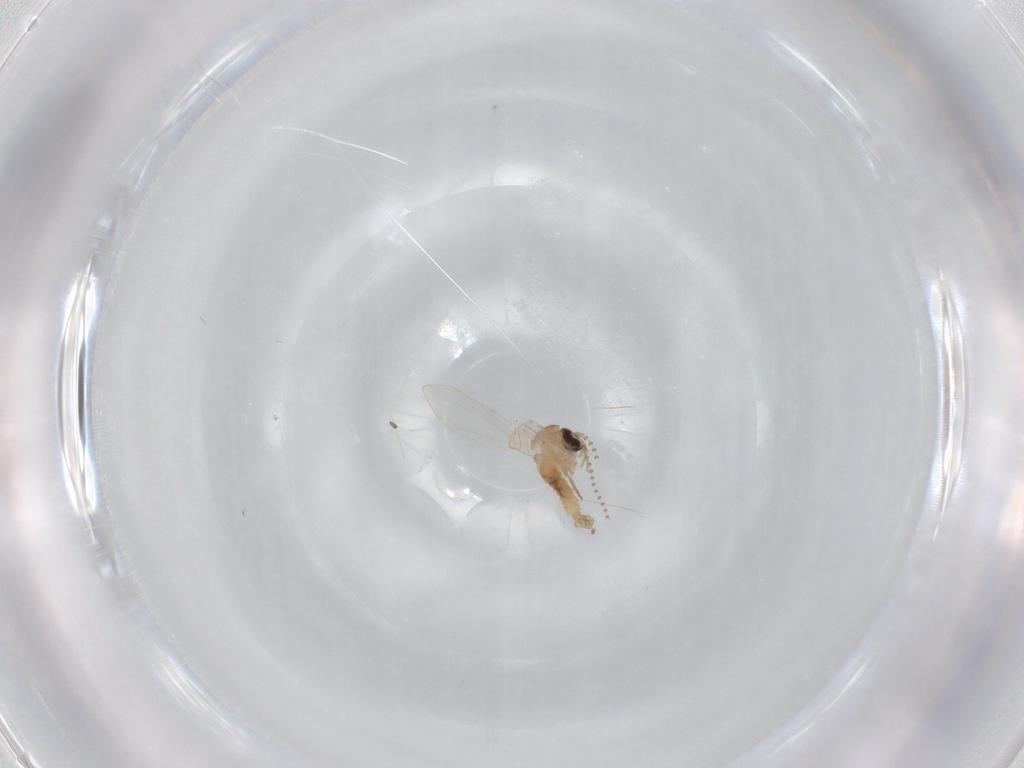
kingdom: Animalia
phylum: Arthropoda
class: Insecta
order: Diptera
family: Psychodidae
